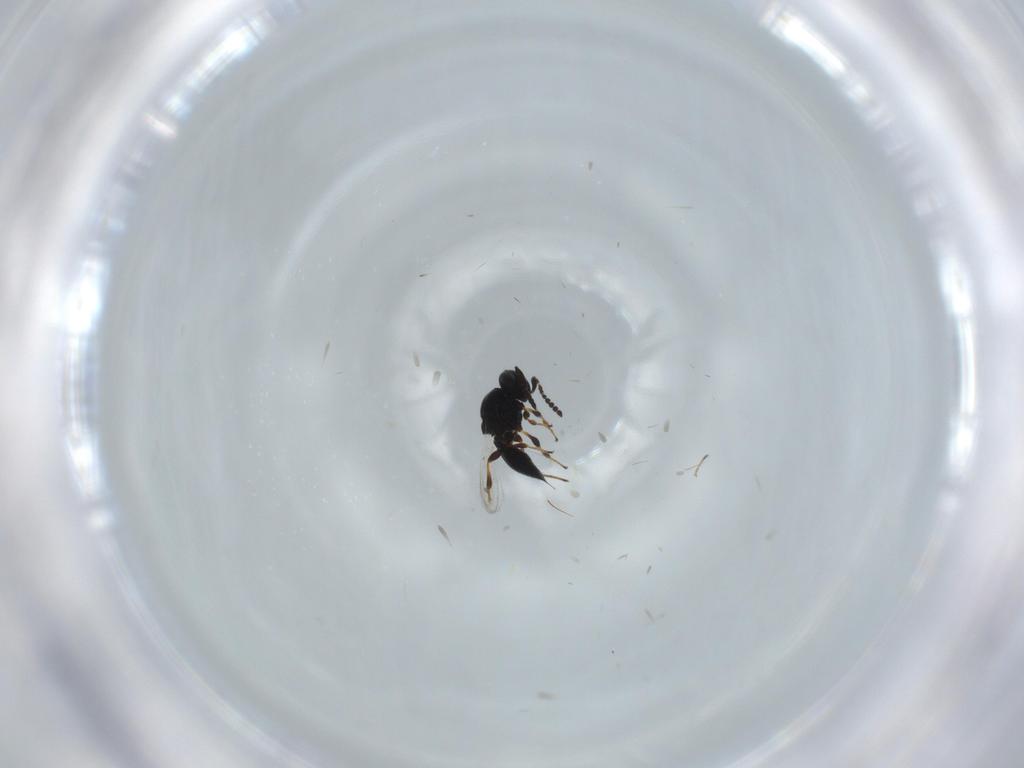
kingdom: Animalia
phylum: Arthropoda
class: Insecta
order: Hymenoptera
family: Platygastridae
